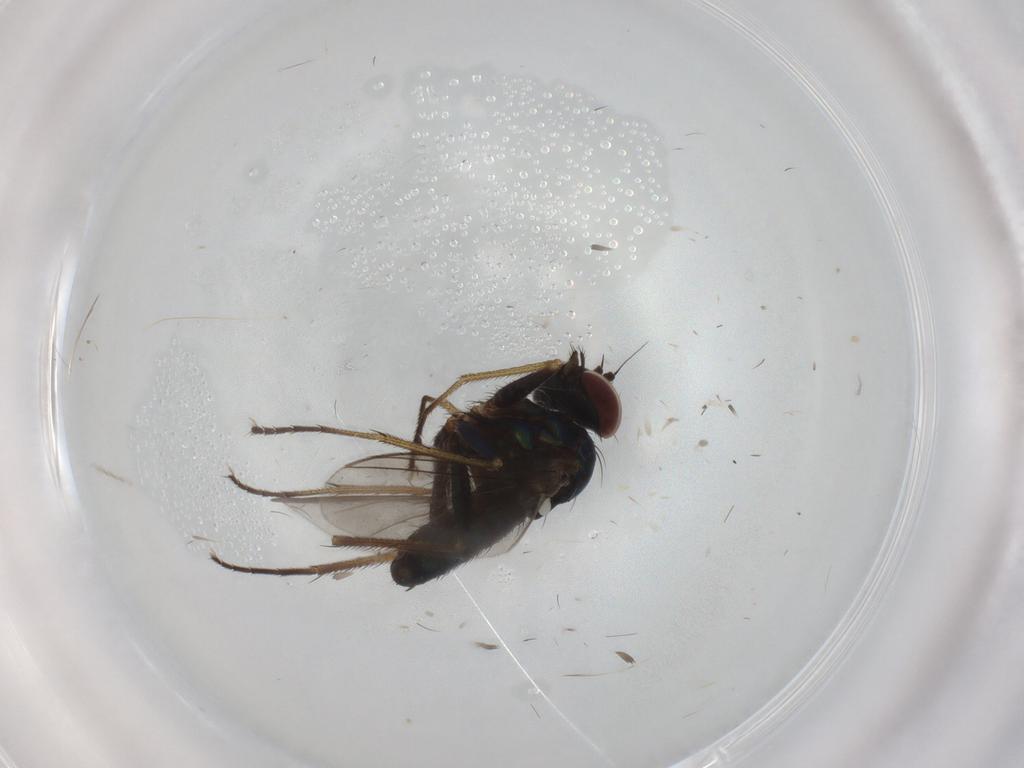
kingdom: Animalia
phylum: Arthropoda
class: Insecta
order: Diptera
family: Dolichopodidae
